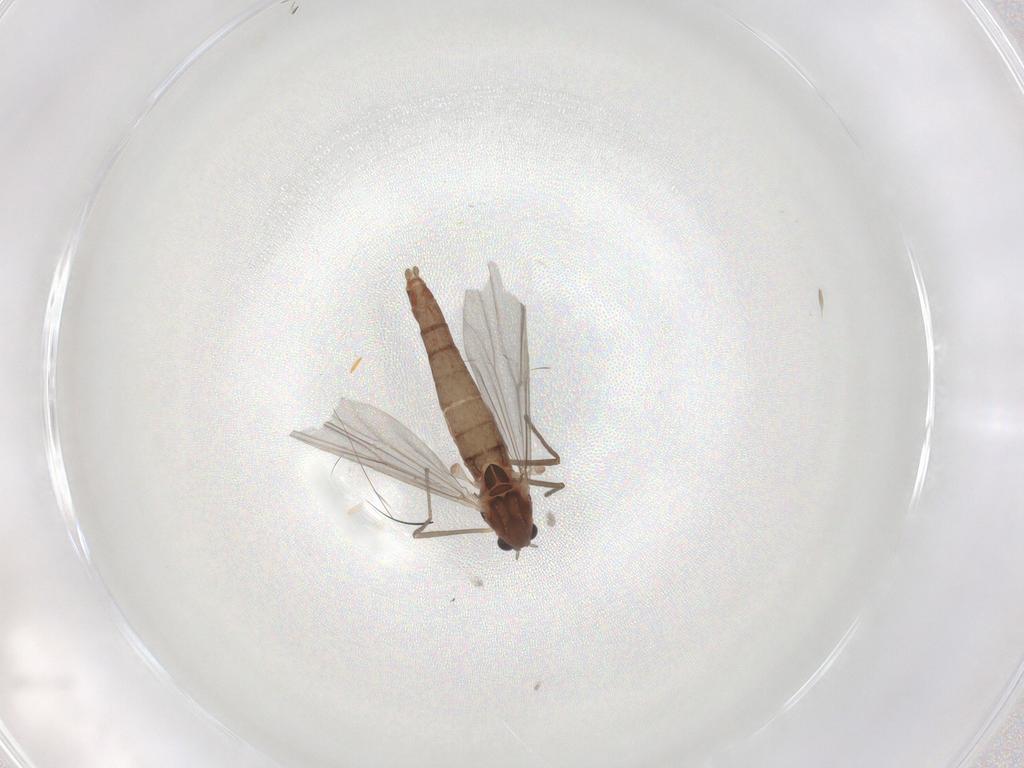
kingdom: Animalia
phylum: Arthropoda
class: Insecta
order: Diptera
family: Chironomidae
